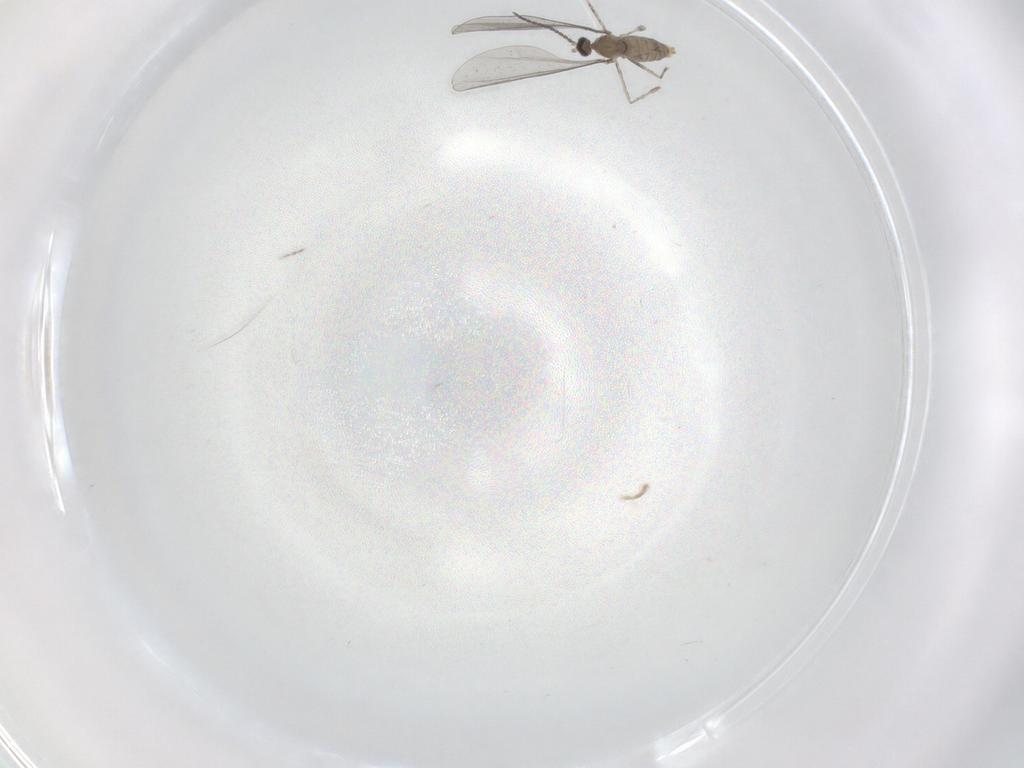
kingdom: Animalia
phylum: Arthropoda
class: Insecta
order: Diptera
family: Cecidomyiidae
